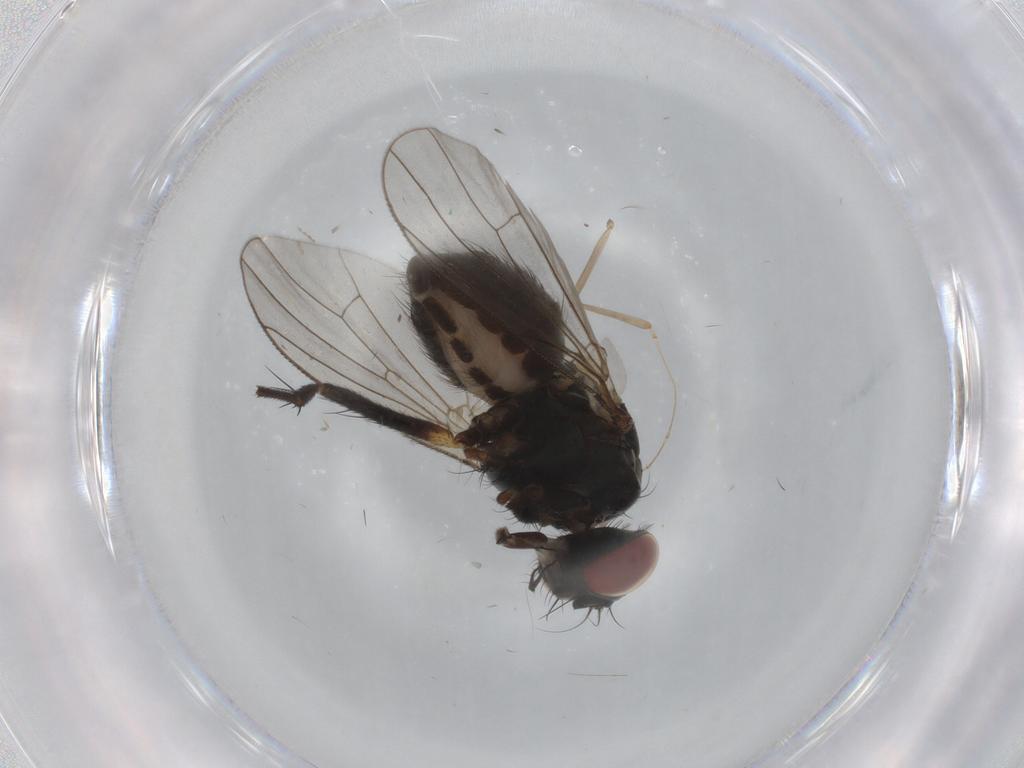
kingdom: Animalia
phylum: Arthropoda
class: Insecta
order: Diptera
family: Muscidae
